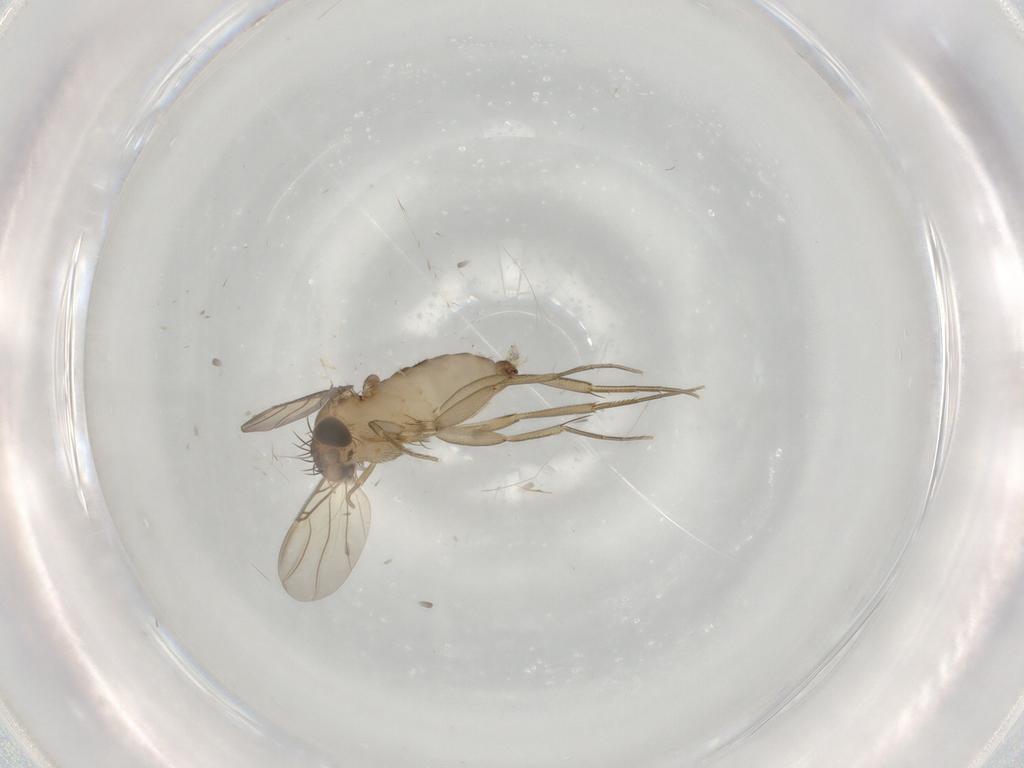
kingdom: Animalia
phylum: Arthropoda
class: Insecta
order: Diptera
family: Phoridae
